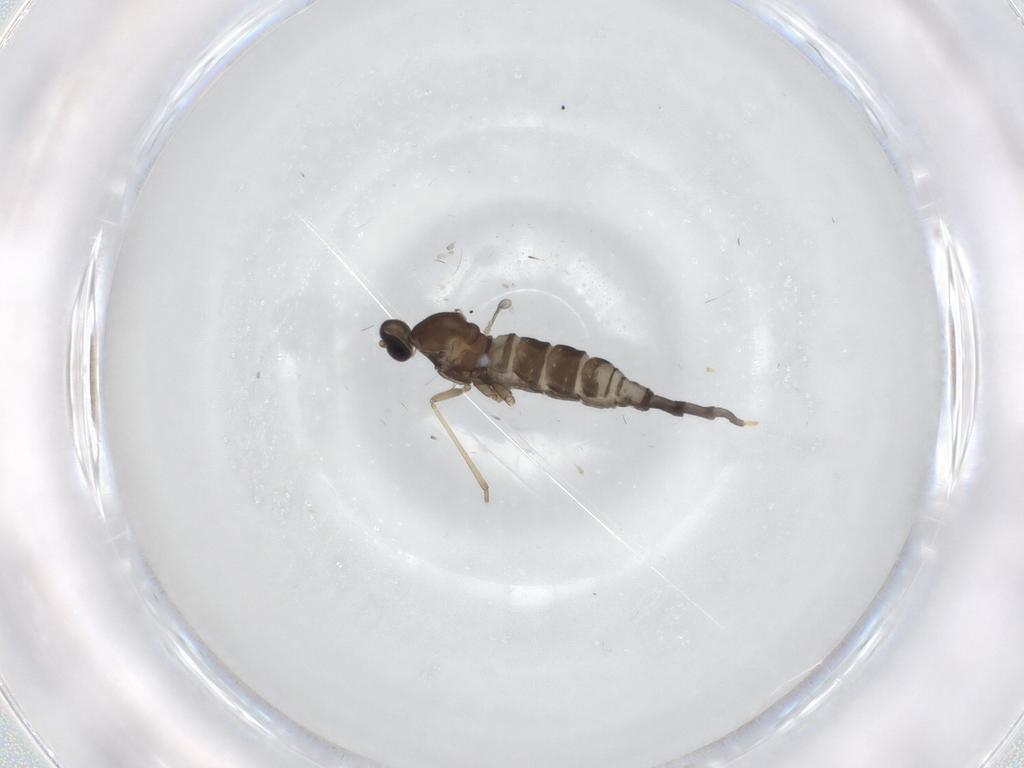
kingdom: Animalia
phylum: Arthropoda
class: Insecta
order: Diptera
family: Cecidomyiidae
